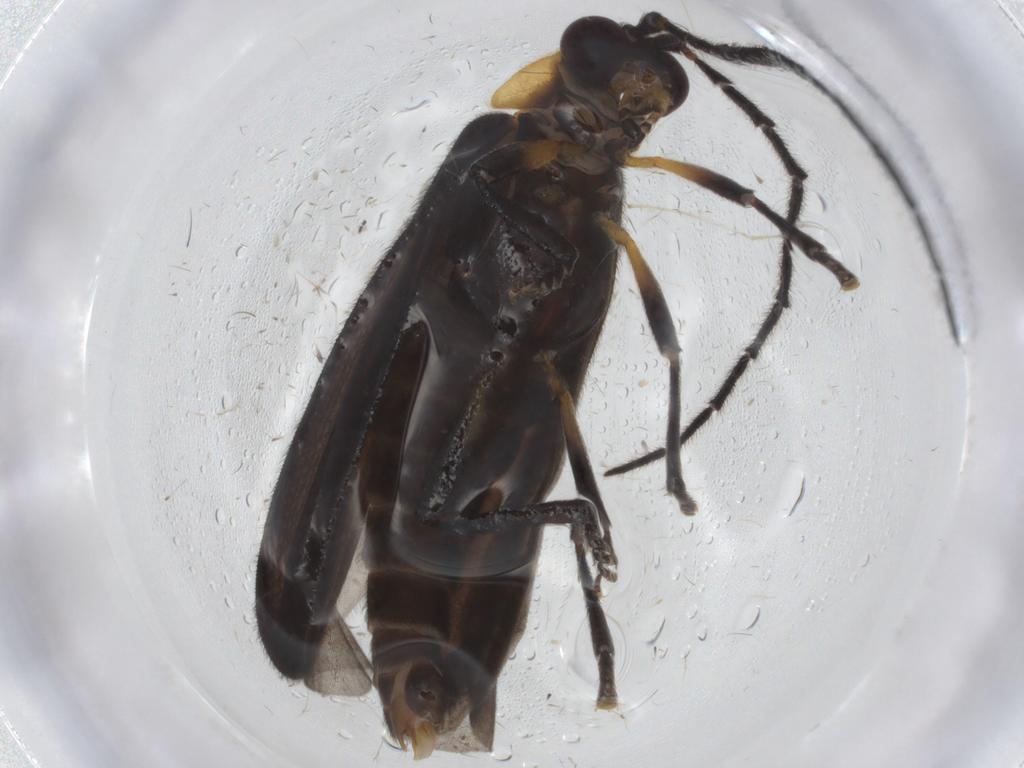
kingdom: Animalia
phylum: Arthropoda
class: Insecta
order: Coleoptera
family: Lycidae
